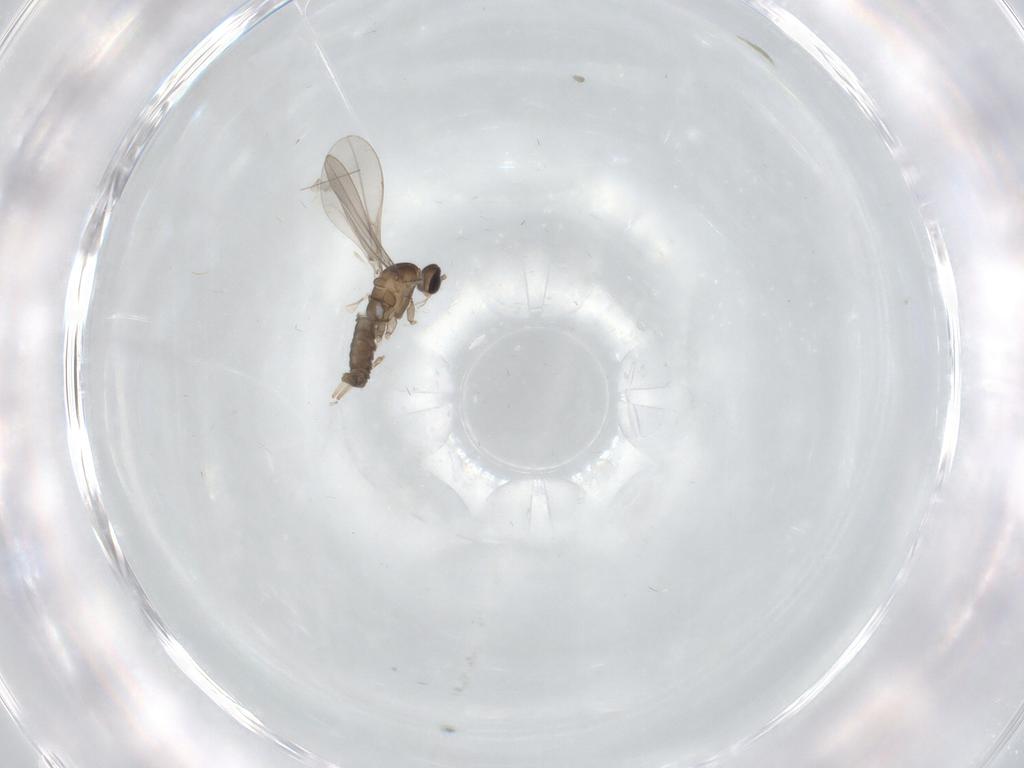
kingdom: Animalia
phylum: Arthropoda
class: Insecta
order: Diptera
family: Cecidomyiidae
